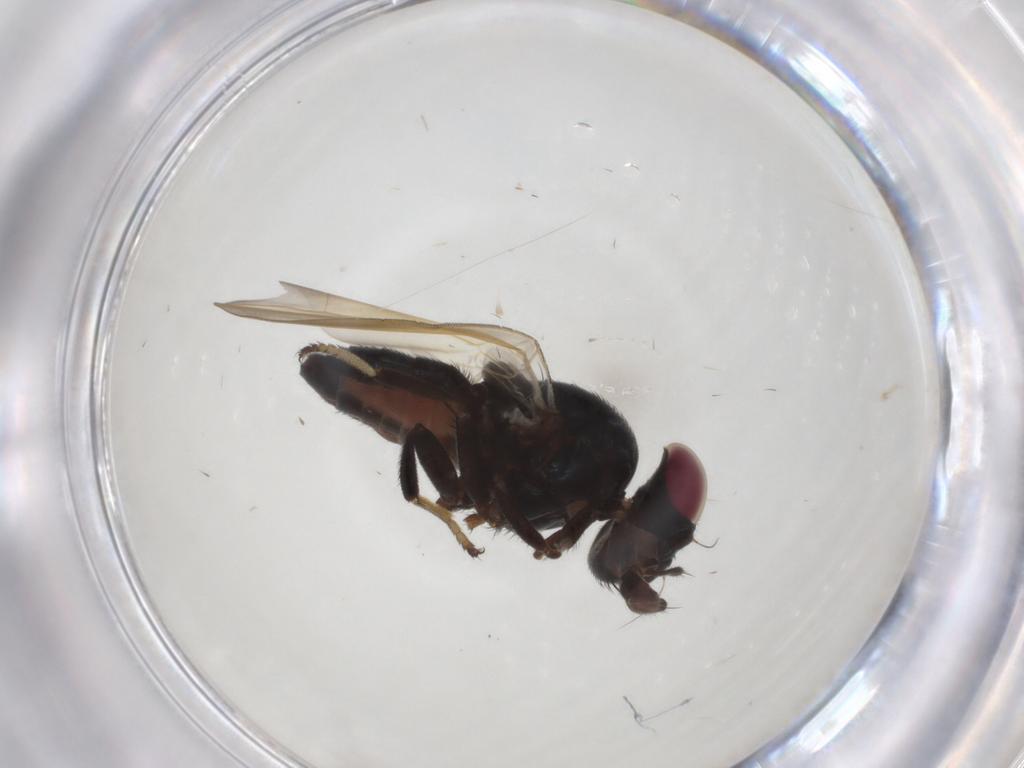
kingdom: Animalia
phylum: Arthropoda
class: Insecta
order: Diptera
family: Lonchaeidae
